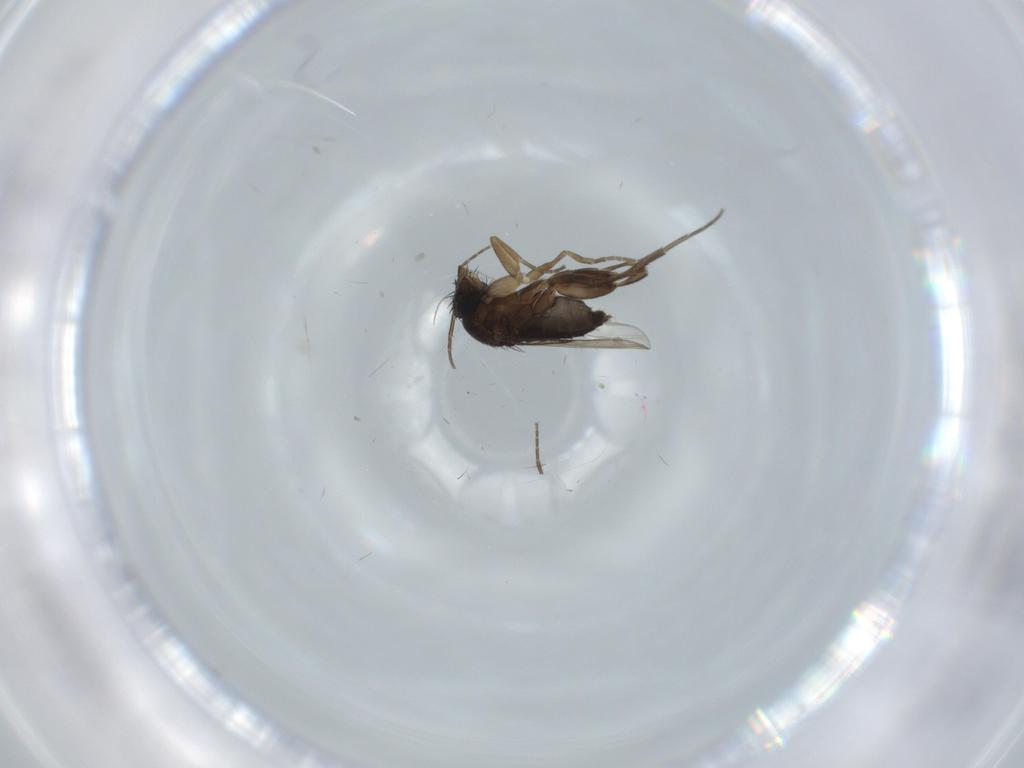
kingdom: Animalia
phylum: Arthropoda
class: Insecta
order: Diptera
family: Phoridae
